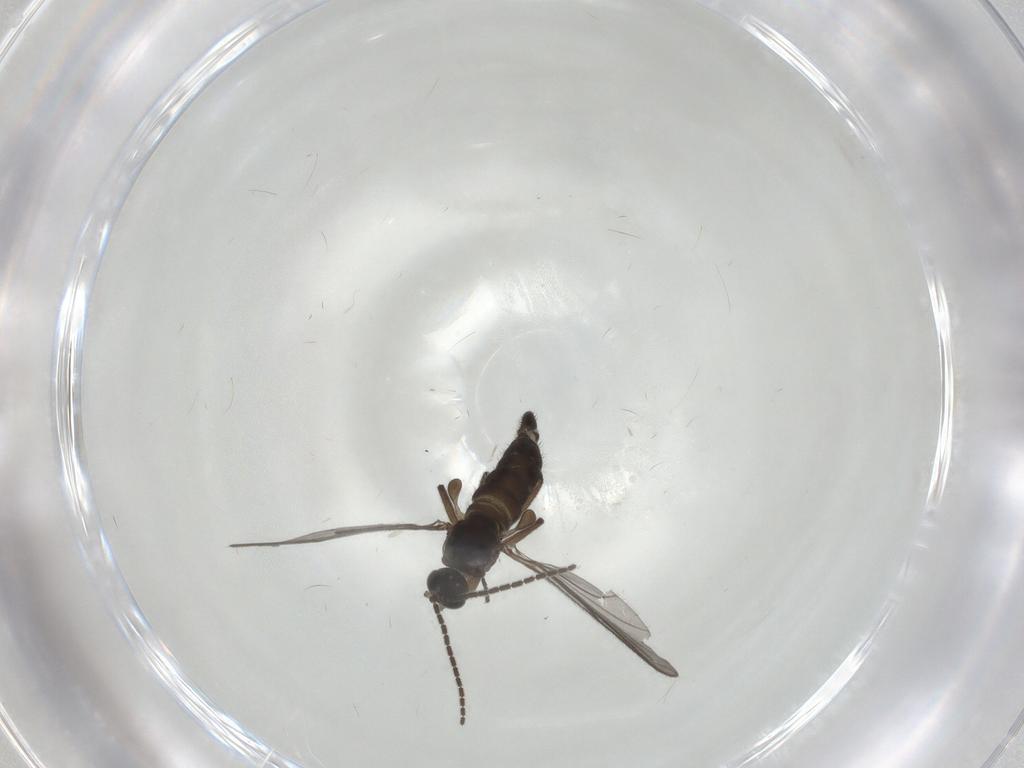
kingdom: Animalia
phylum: Arthropoda
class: Insecta
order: Diptera
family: Sciaridae
